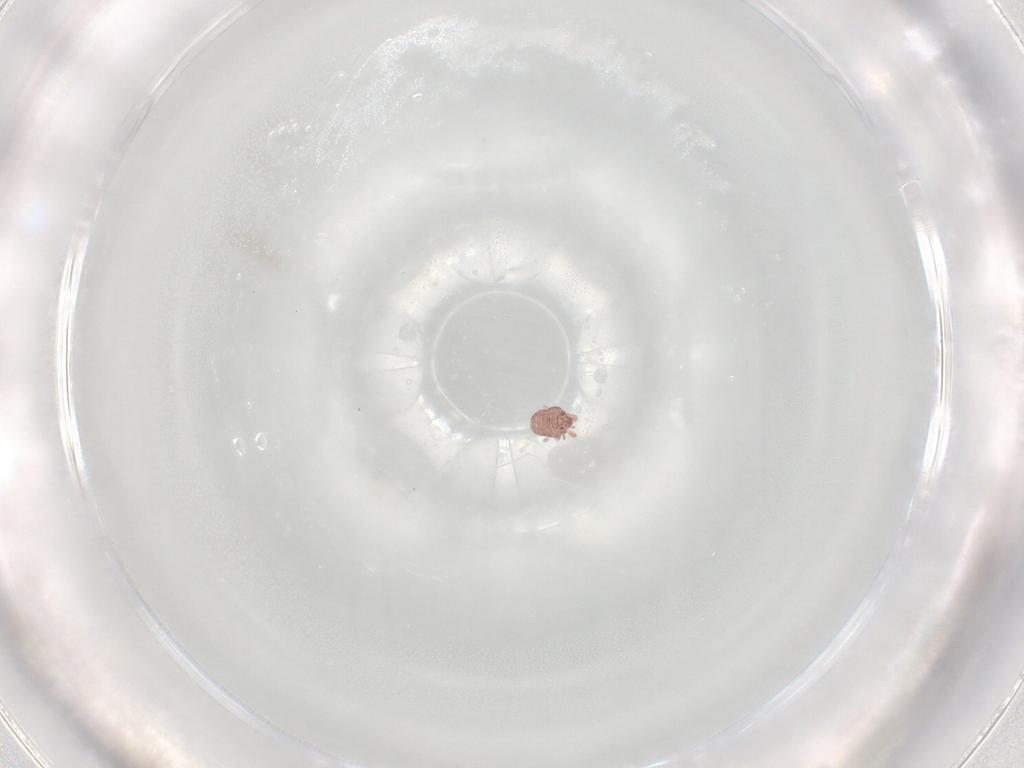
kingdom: Animalia
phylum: Arthropoda
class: Arachnida
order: Sarcoptiformes
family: Alycidae
